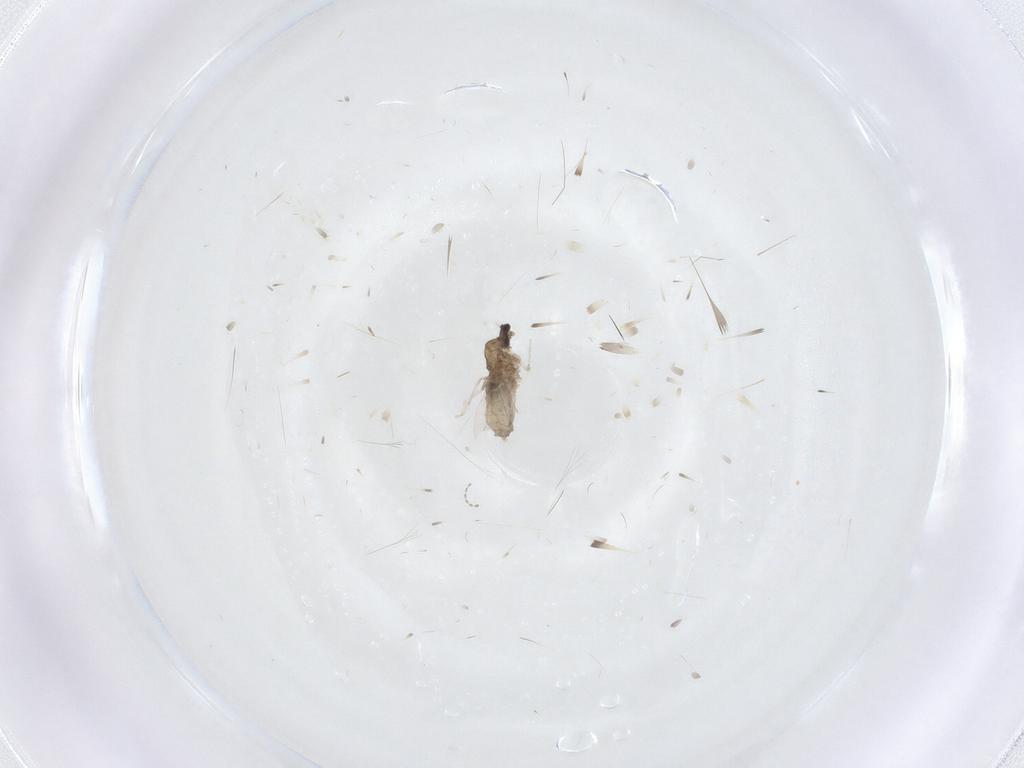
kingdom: Animalia
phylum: Arthropoda
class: Insecta
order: Diptera
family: Cecidomyiidae
